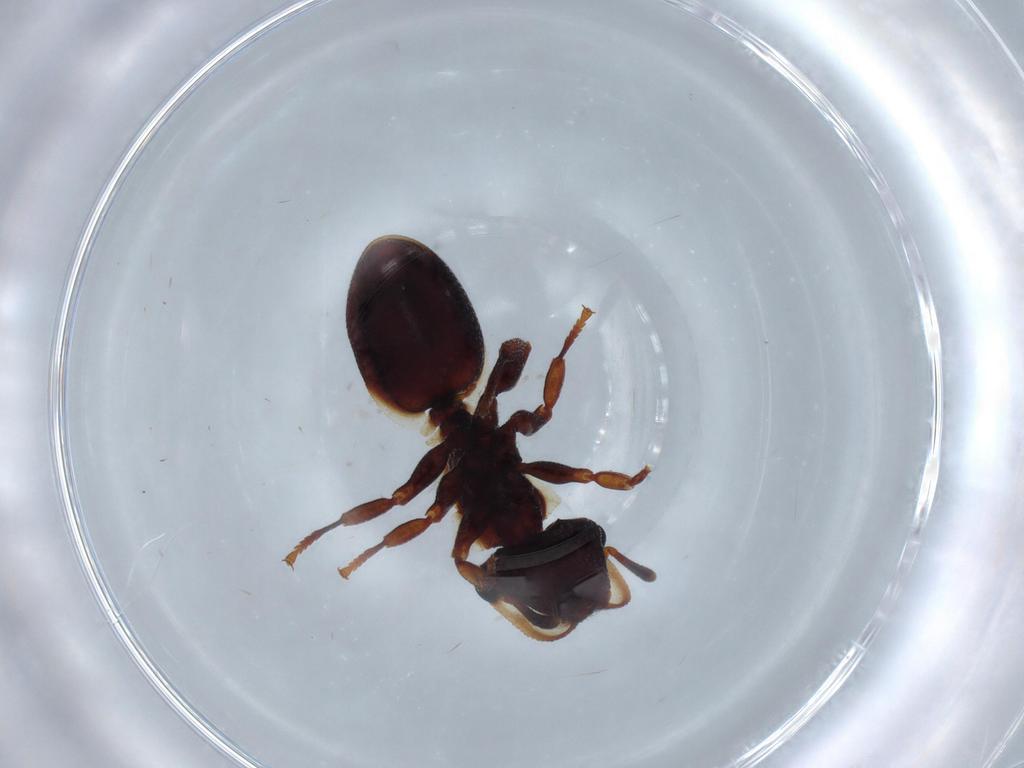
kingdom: Animalia
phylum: Arthropoda
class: Insecta
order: Hymenoptera
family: Formicidae
